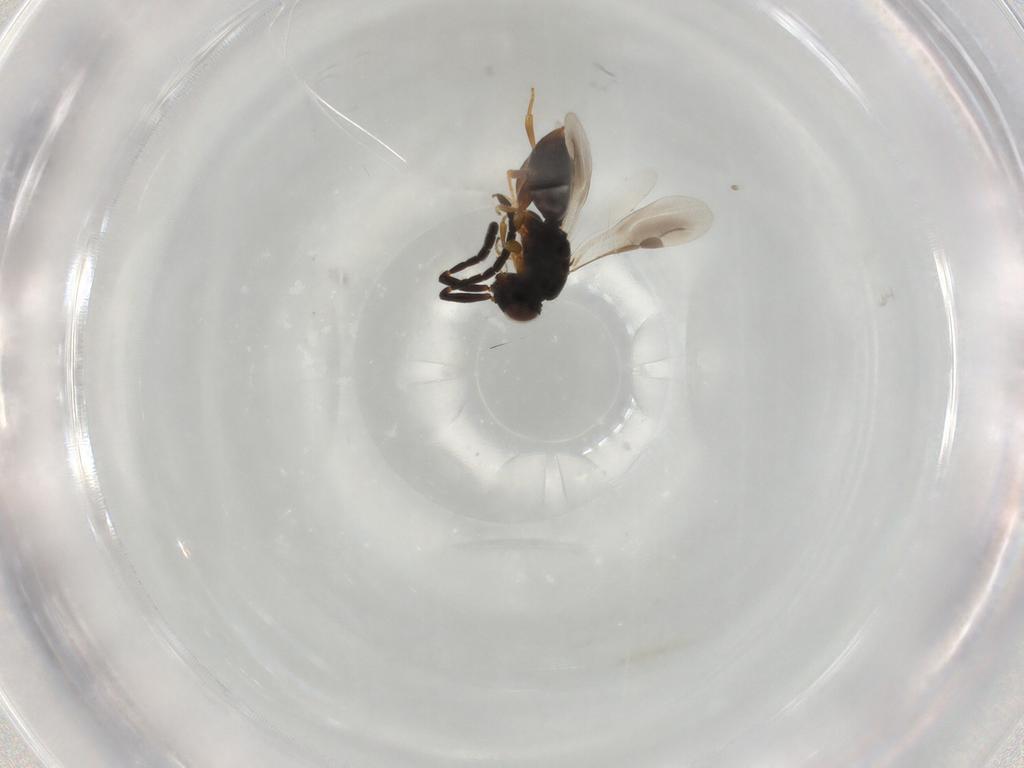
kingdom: Animalia
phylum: Arthropoda
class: Insecta
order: Hymenoptera
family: Megaspilidae
